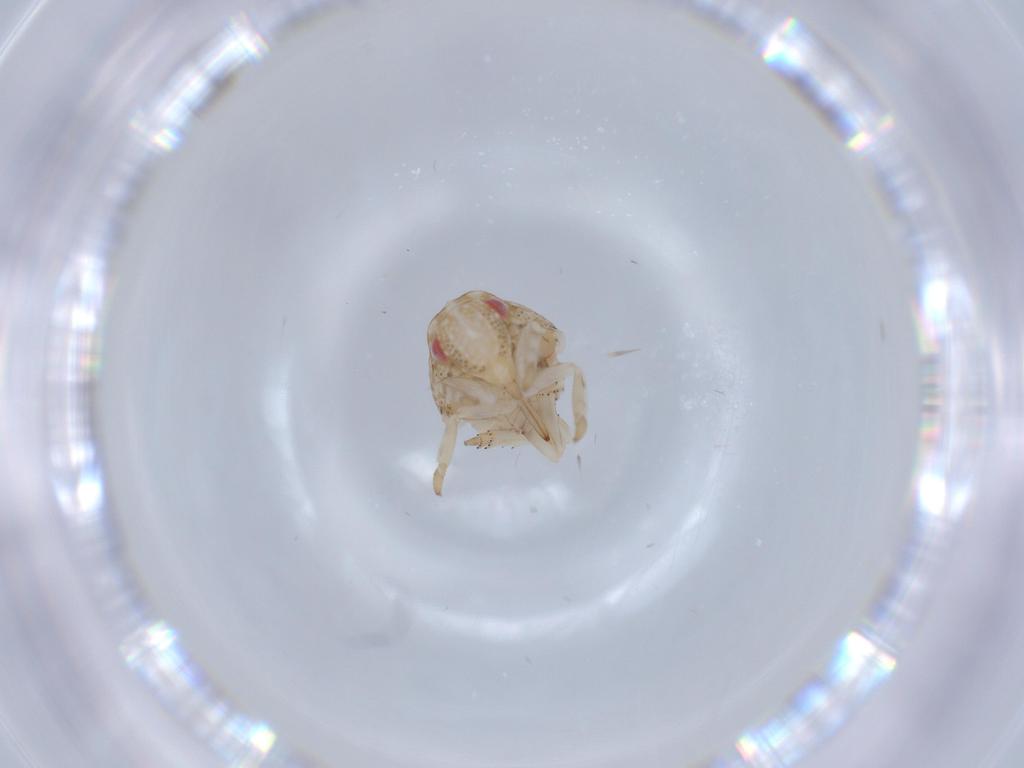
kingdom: Animalia
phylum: Arthropoda
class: Insecta
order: Hemiptera
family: Acanaloniidae
